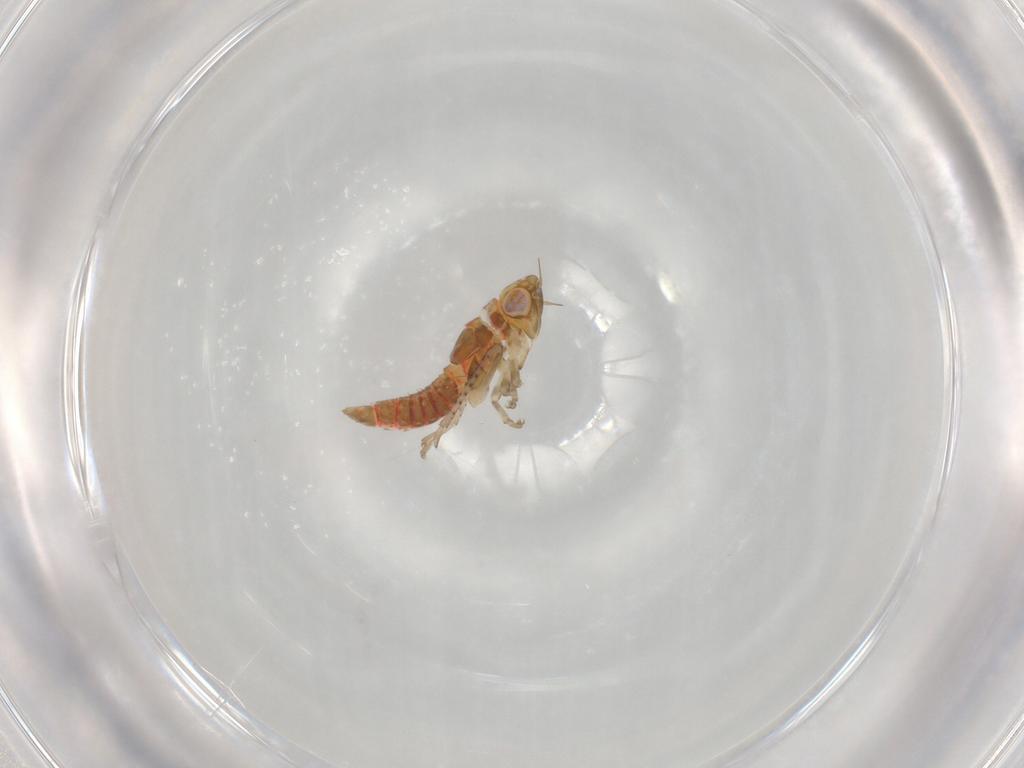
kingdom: Animalia
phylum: Arthropoda
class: Insecta
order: Hemiptera
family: Cicadellidae
